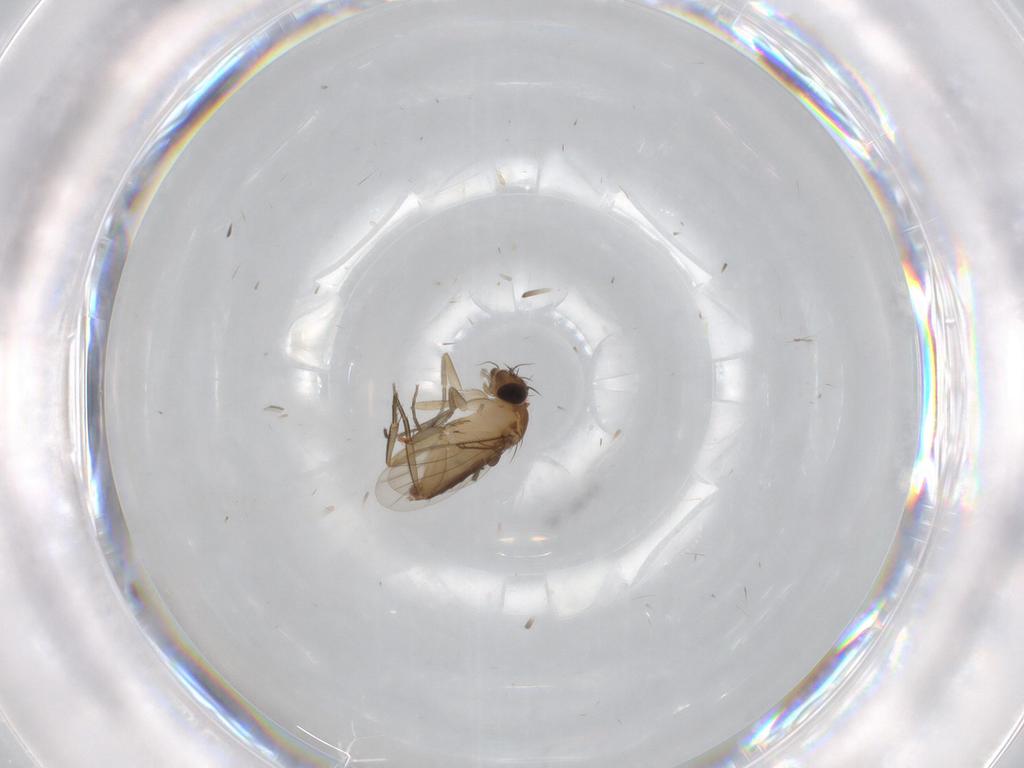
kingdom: Animalia
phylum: Arthropoda
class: Insecta
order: Diptera
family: Phoridae
